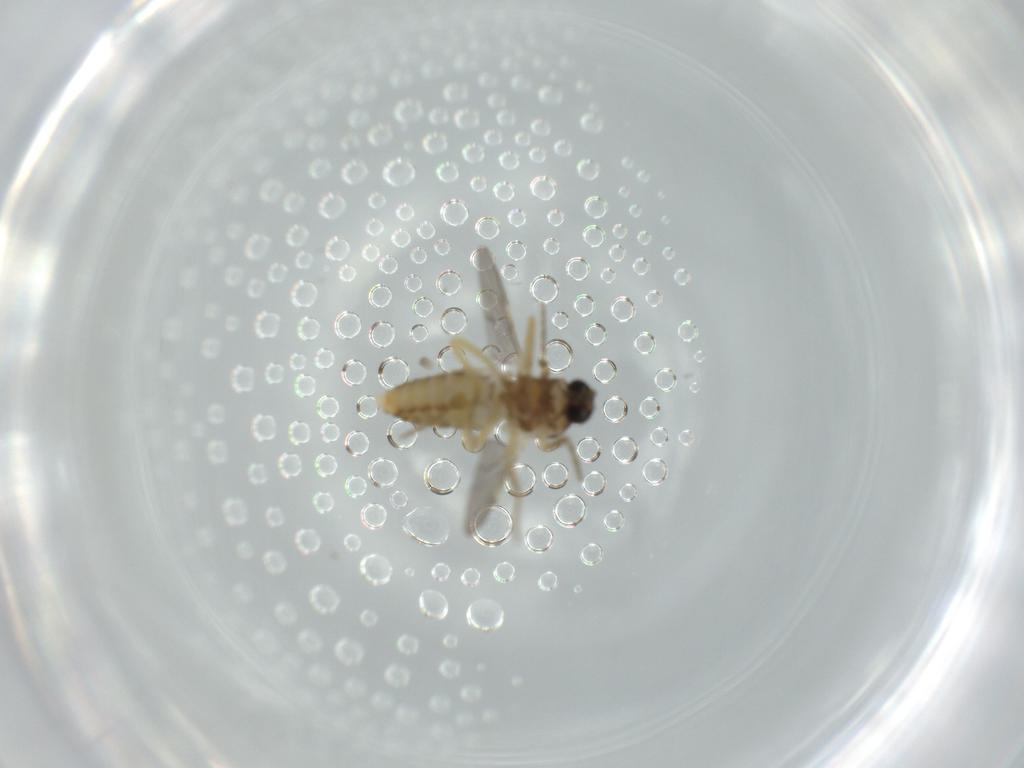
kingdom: Animalia
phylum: Arthropoda
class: Insecta
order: Diptera
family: Ceratopogonidae
